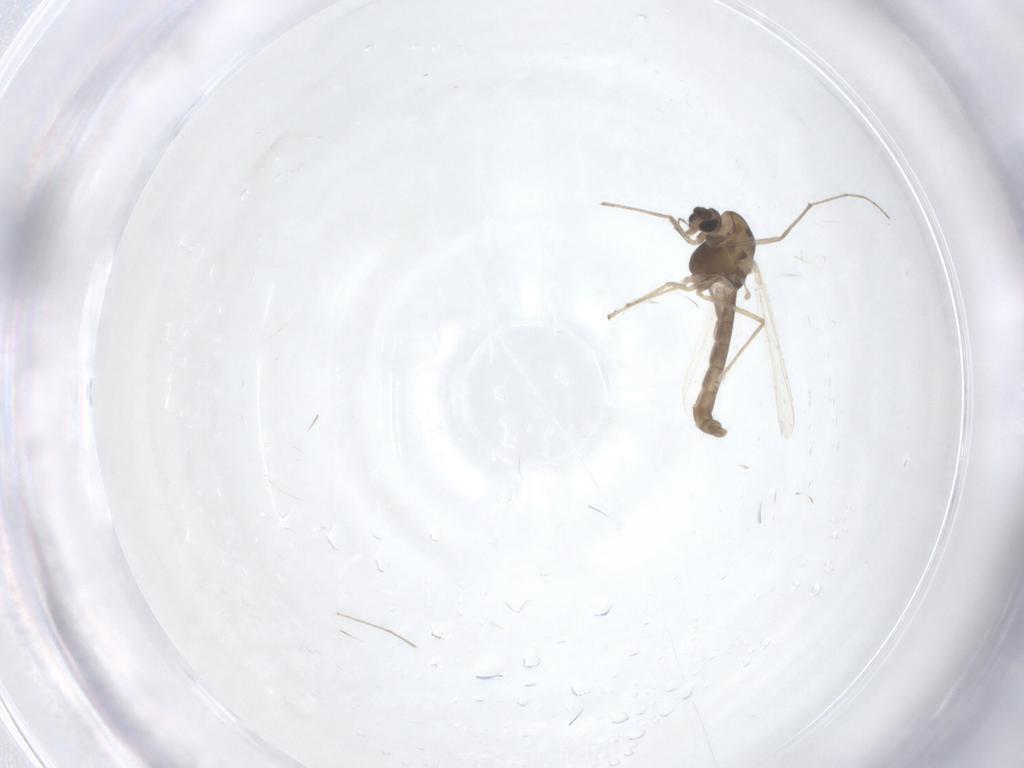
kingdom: Animalia
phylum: Arthropoda
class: Insecta
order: Diptera
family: Chironomidae
